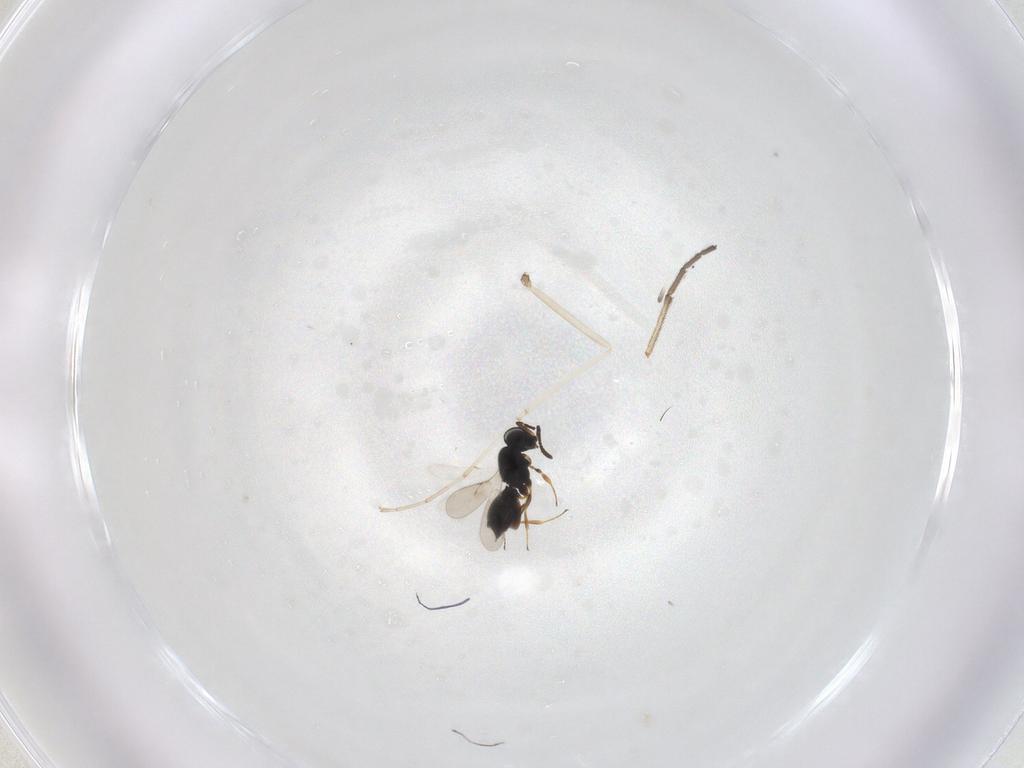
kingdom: Animalia
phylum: Arthropoda
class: Insecta
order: Hymenoptera
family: Scelionidae
